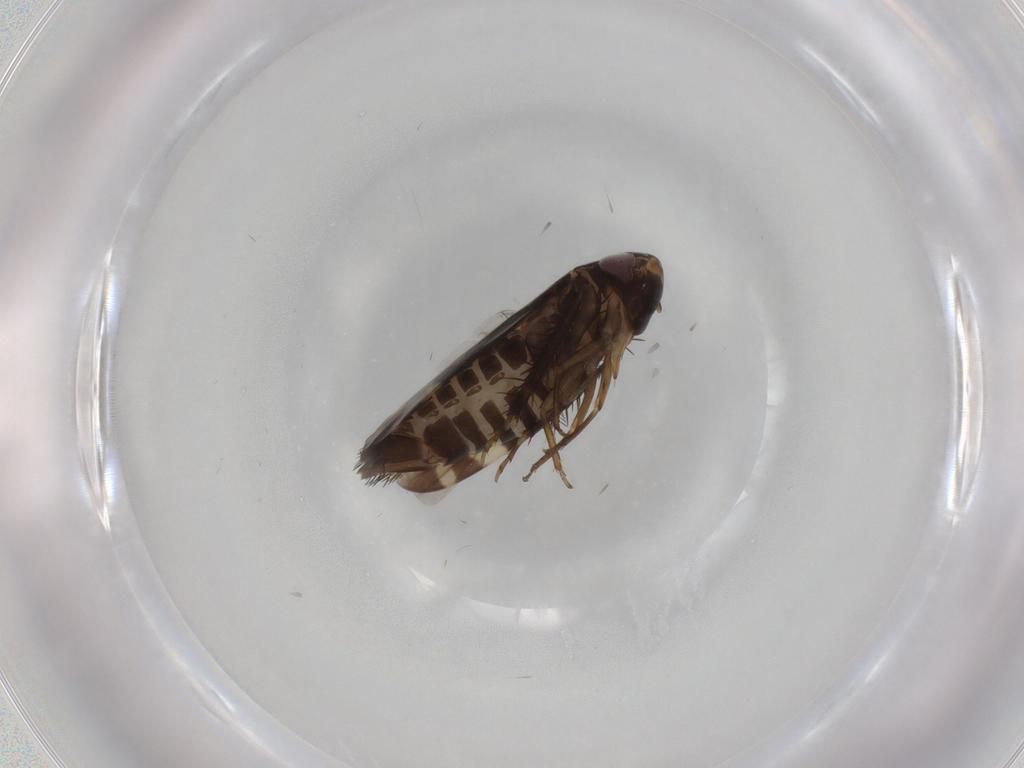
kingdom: Animalia
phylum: Arthropoda
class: Insecta
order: Hemiptera
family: Cicadellidae
